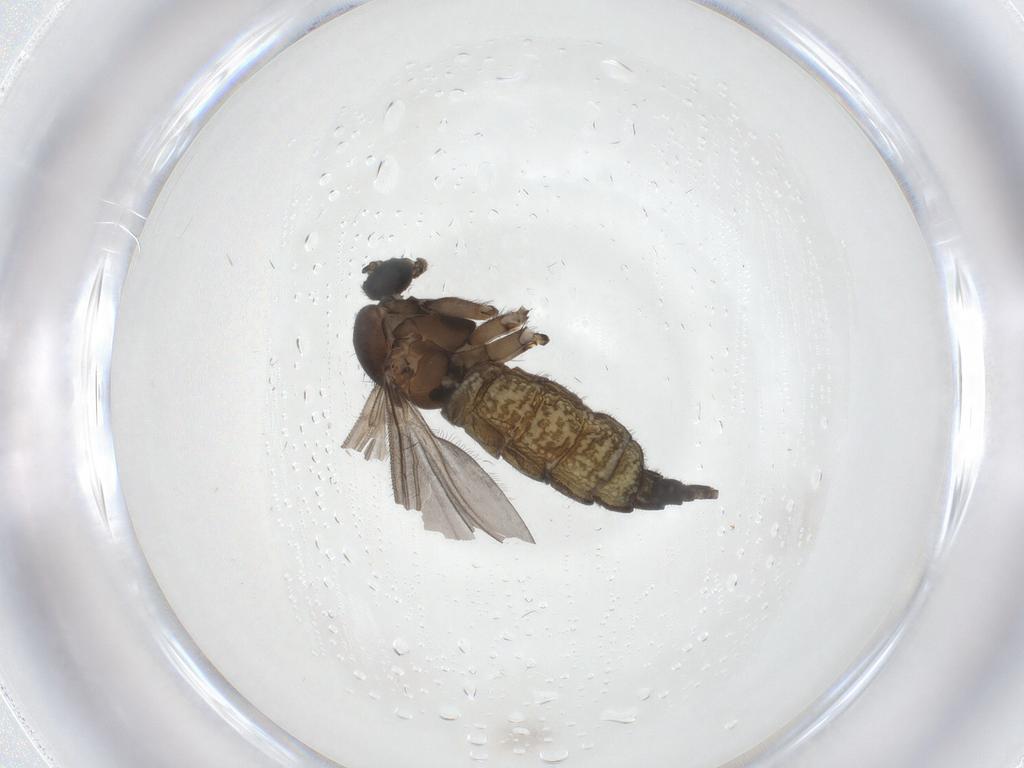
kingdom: Animalia
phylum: Arthropoda
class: Insecta
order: Diptera
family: Sciaridae
